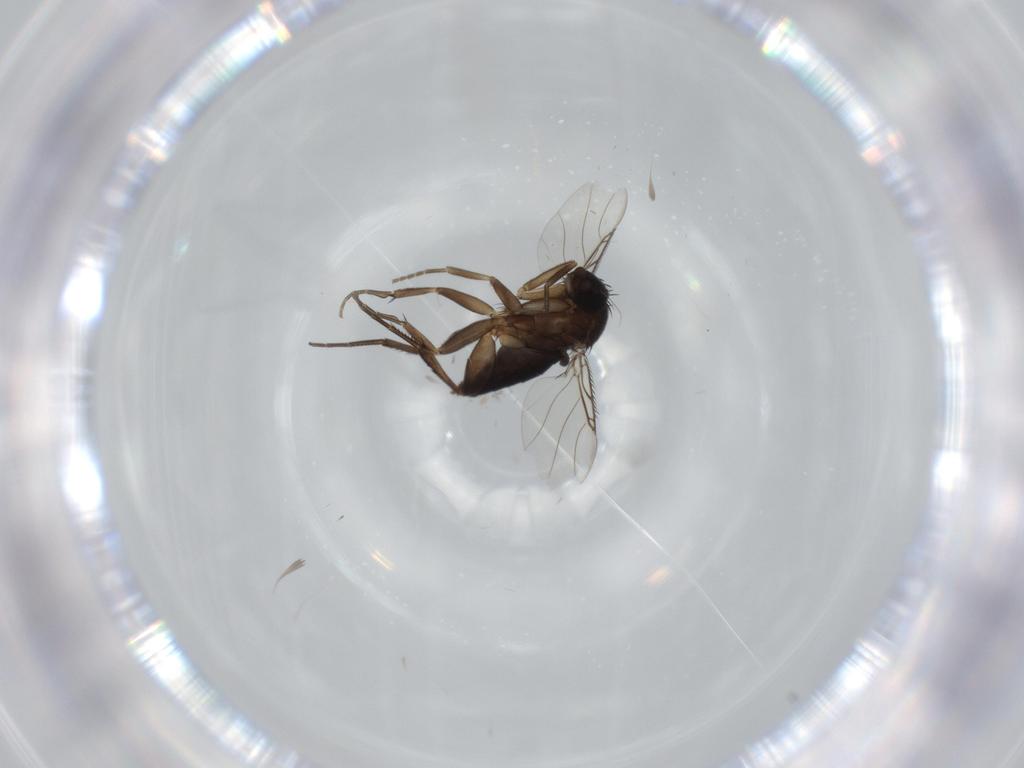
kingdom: Animalia
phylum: Arthropoda
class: Insecta
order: Diptera
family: Phoridae
